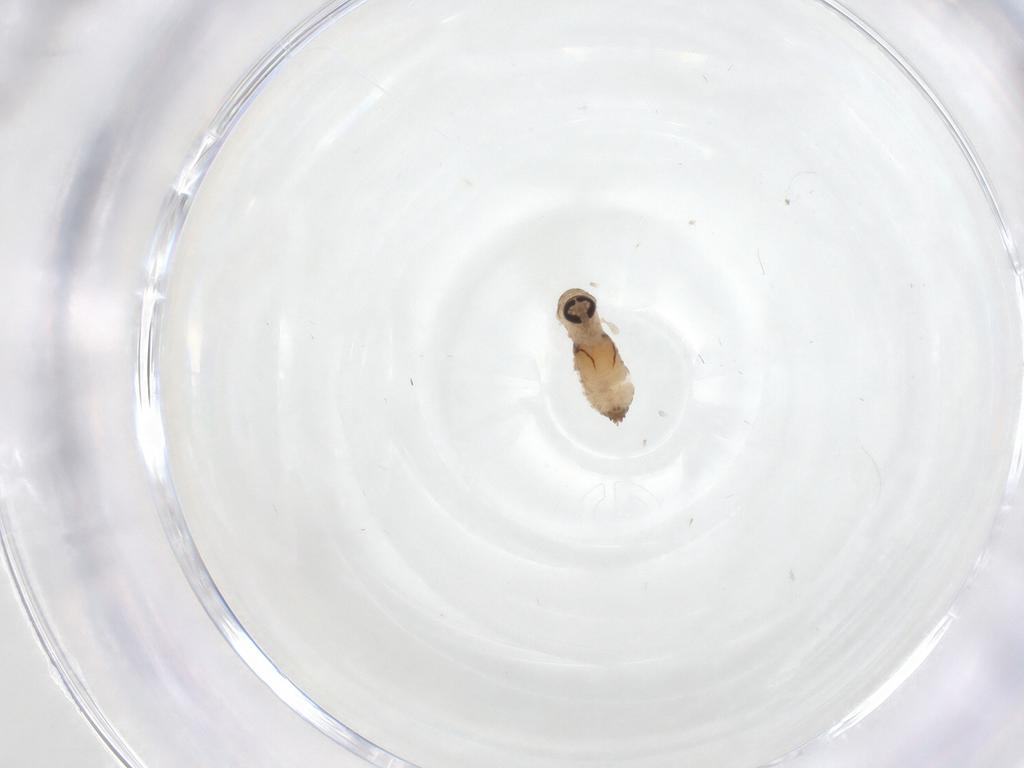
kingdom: Animalia
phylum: Arthropoda
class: Insecta
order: Diptera
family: Psychodidae
